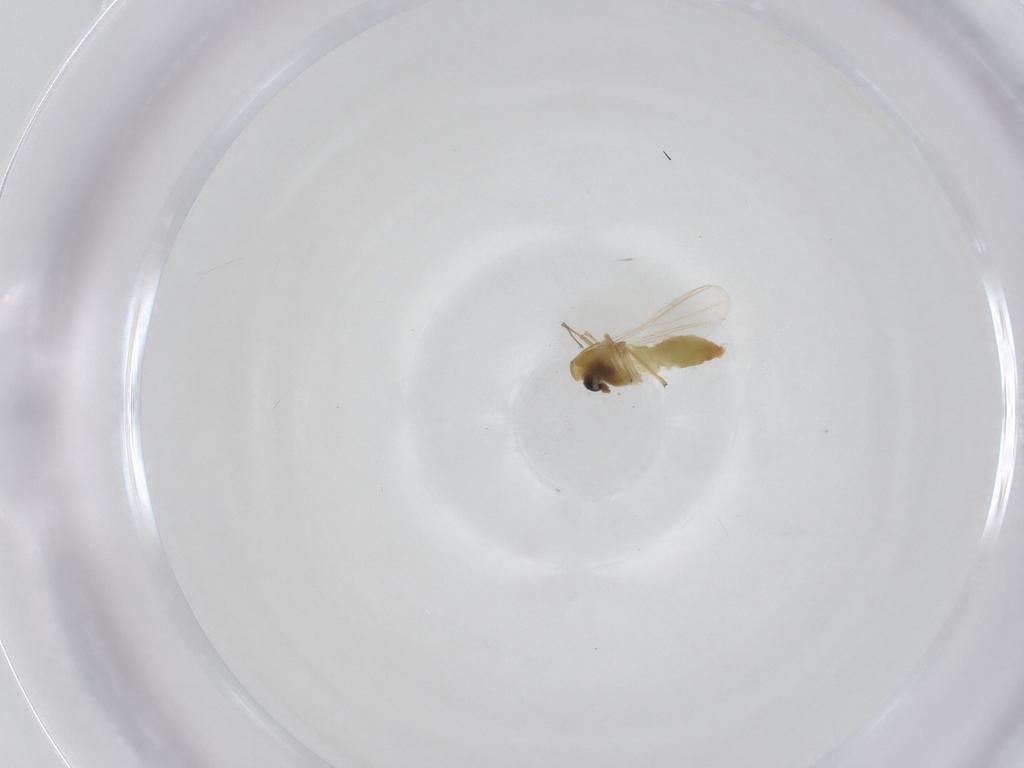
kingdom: Animalia
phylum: Arthropoda
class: Insecta
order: Diptera
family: Chironomidae
